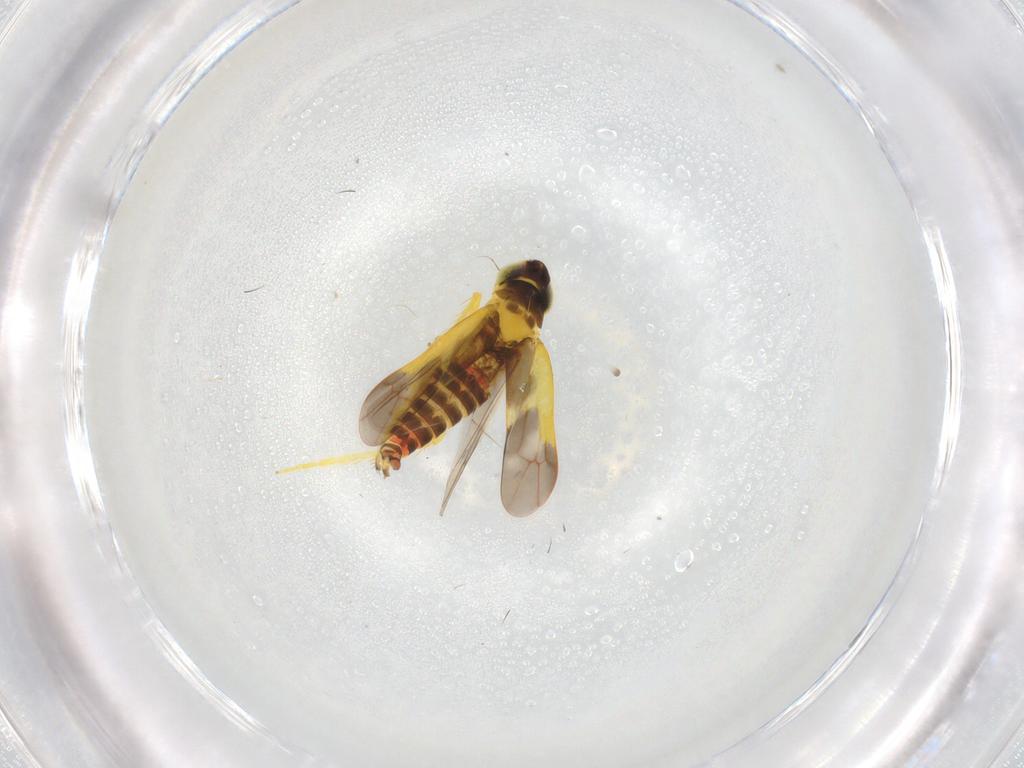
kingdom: Animalia
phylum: Arthropoda
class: Insecta
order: Hemiptera
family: Cicadellidae
